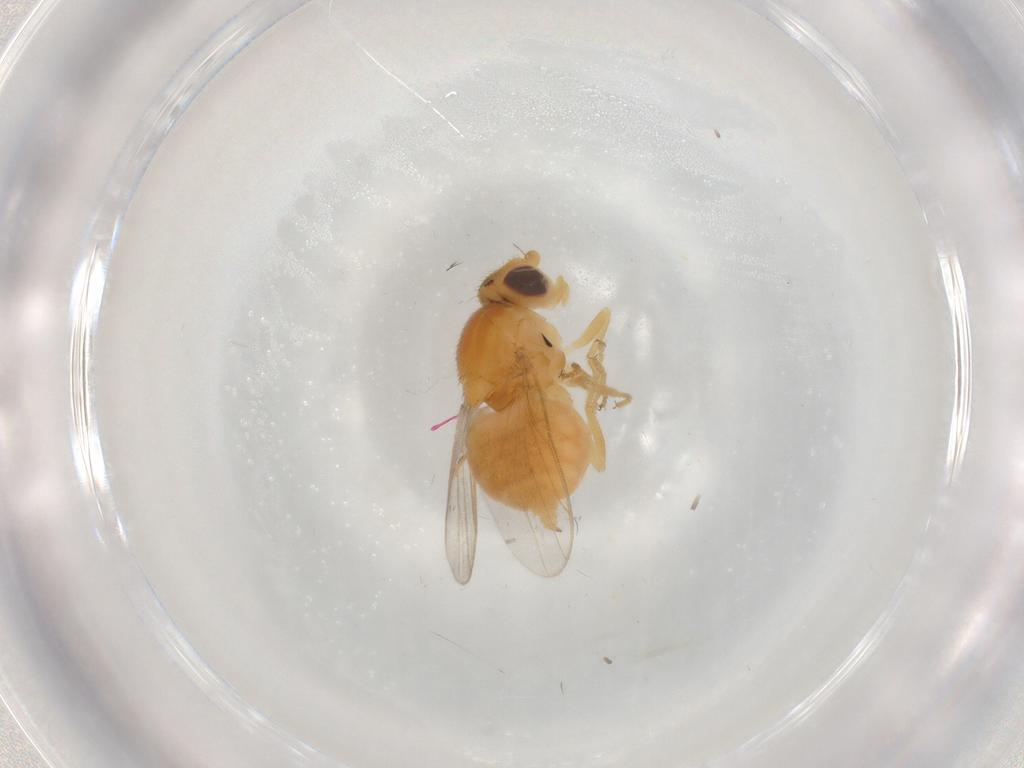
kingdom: Animalia
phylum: Arthropoda
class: Insecta
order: Diptera
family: Chloropidae
